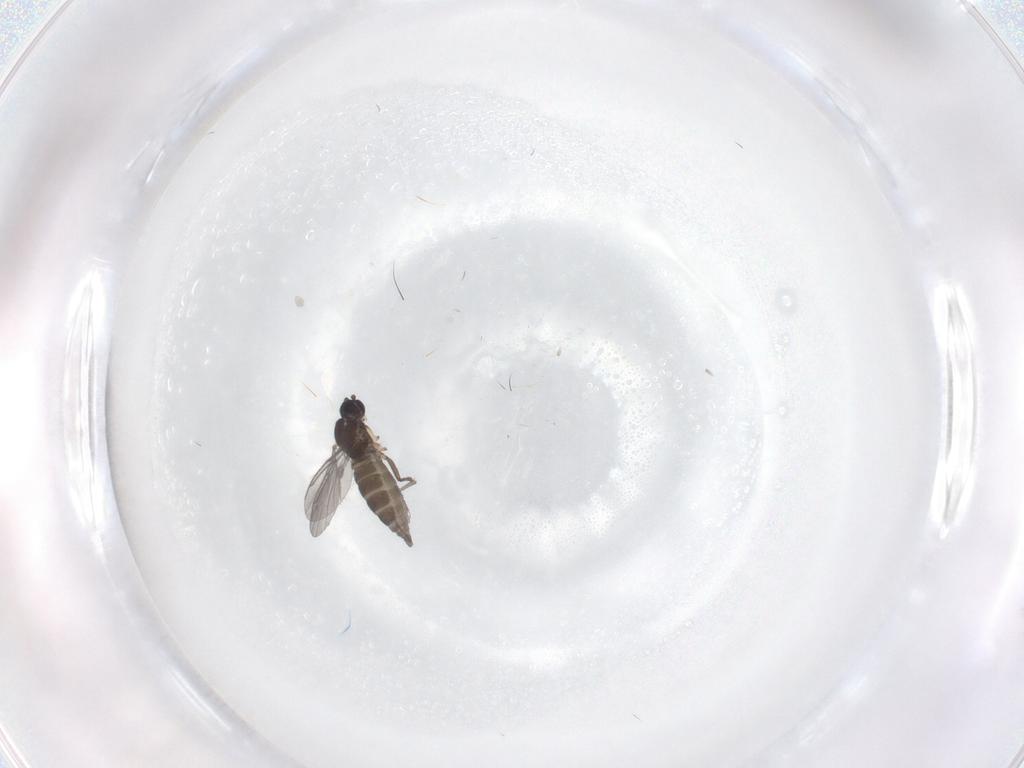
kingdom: Animalia
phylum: Arthropoda
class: Insecta
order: Diptera
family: Sciaridae
